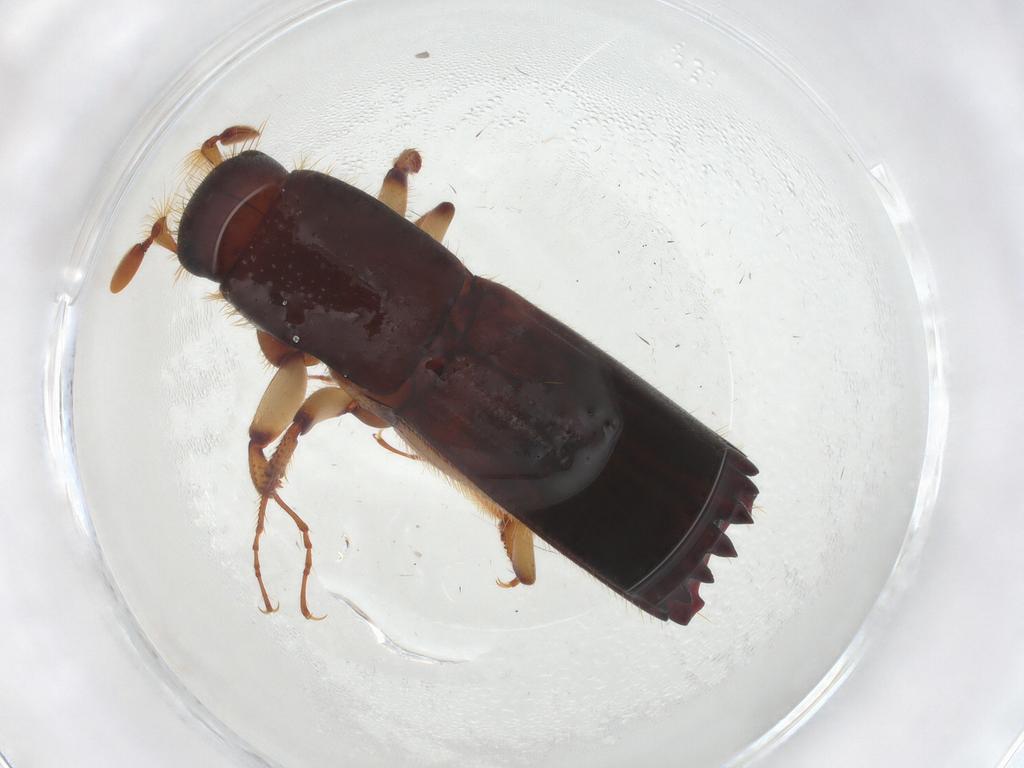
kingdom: Animalia
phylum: Arthropoda
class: Insecta
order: Coleoptera
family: Curculionidae
